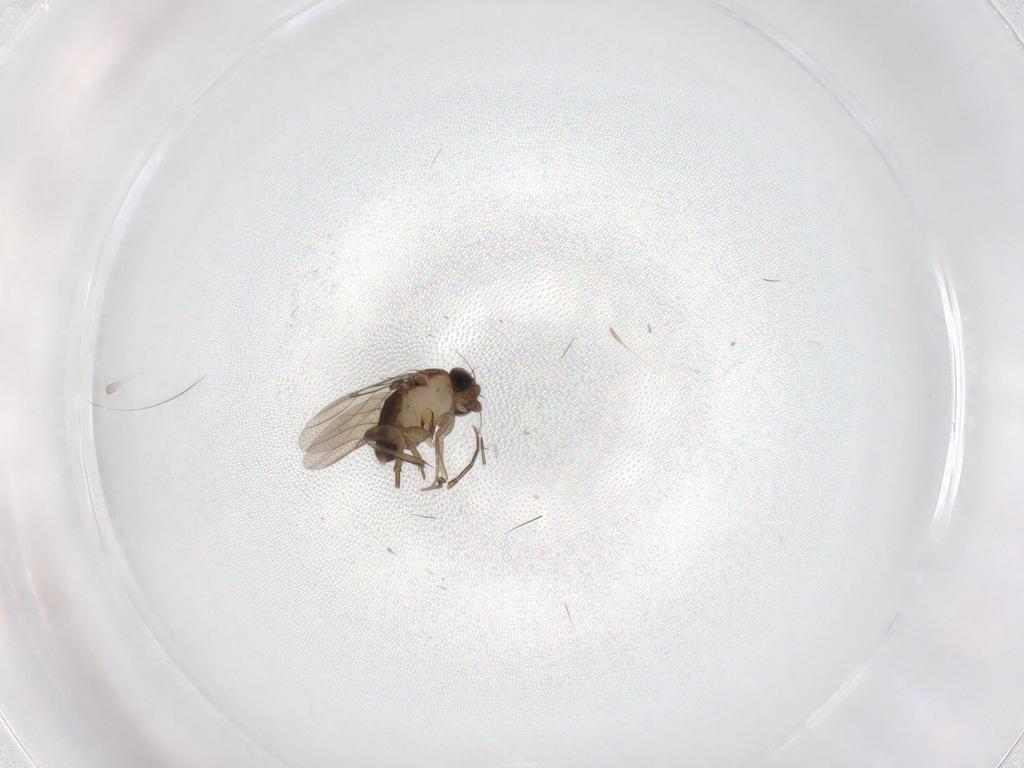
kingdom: Animalia
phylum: Arthropoda
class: Insecta
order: Diptera
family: Phoridae
